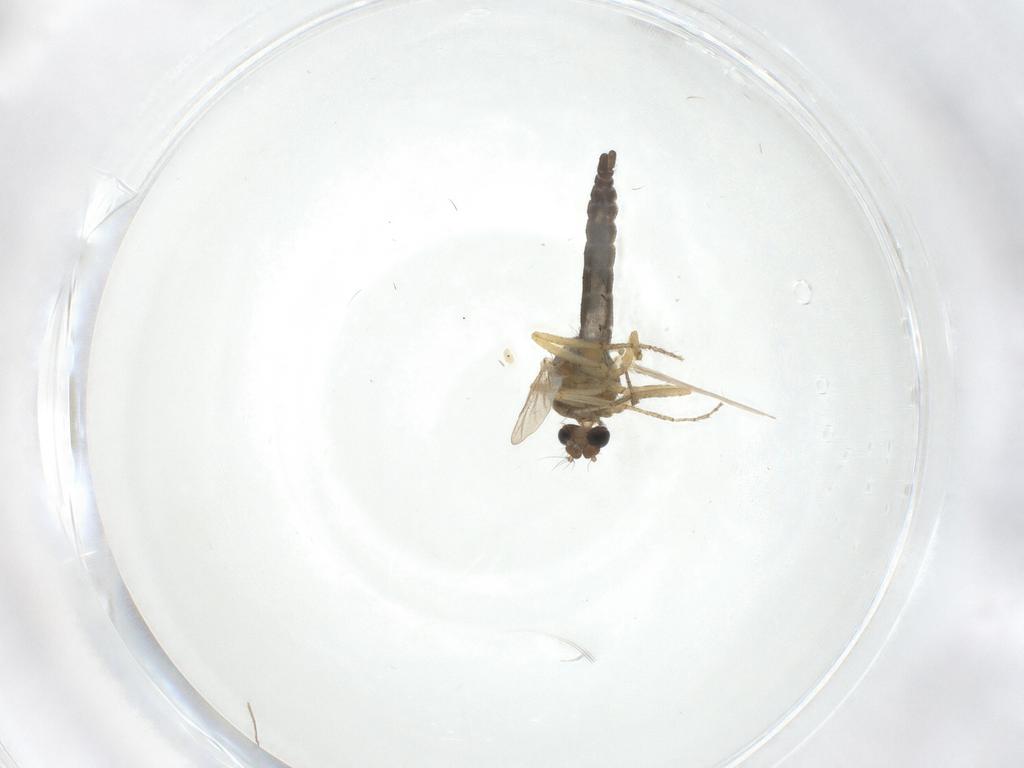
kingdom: Animalia
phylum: Arthropoda
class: Insecta
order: Diptera
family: Ceratopogonidae
